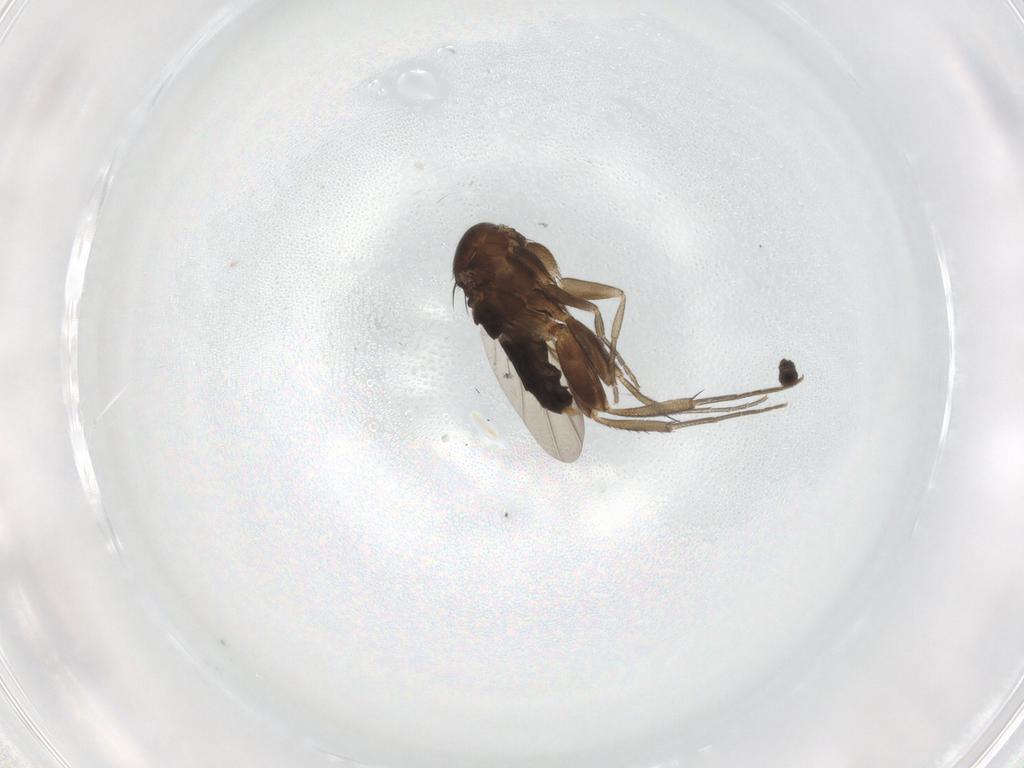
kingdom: Animalia
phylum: Arthropoda
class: Insecta
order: Diptera
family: Phoridae
